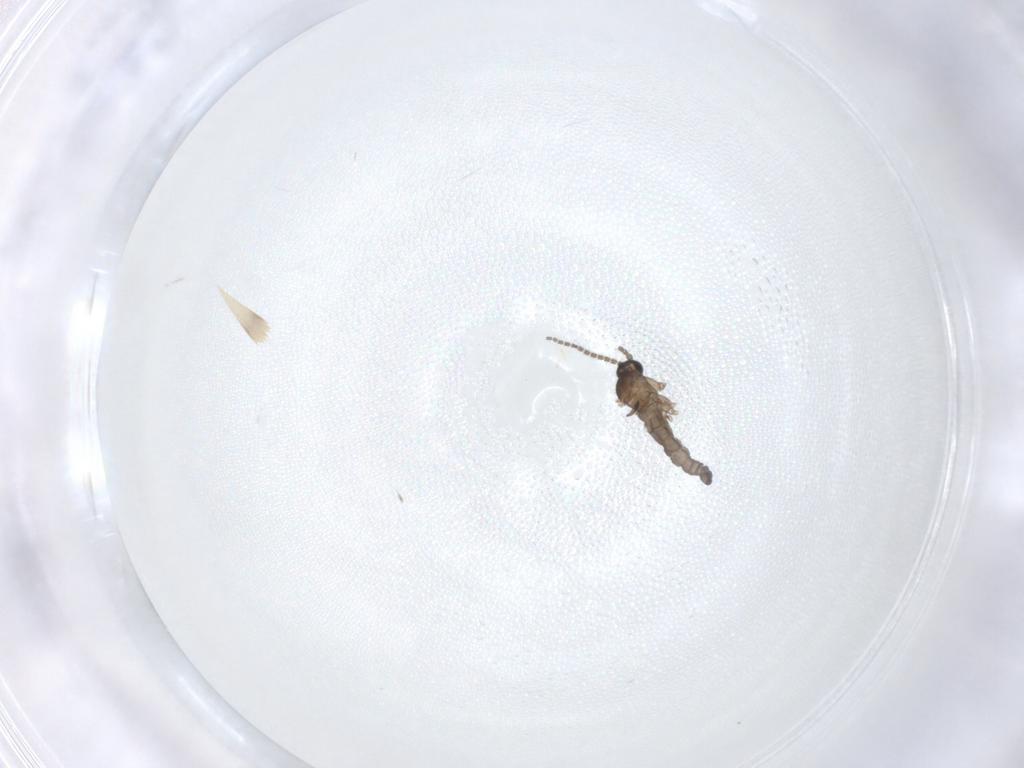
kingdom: Animalia
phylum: Arthropoda
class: Insecta
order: Diptera
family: Sciaridae
